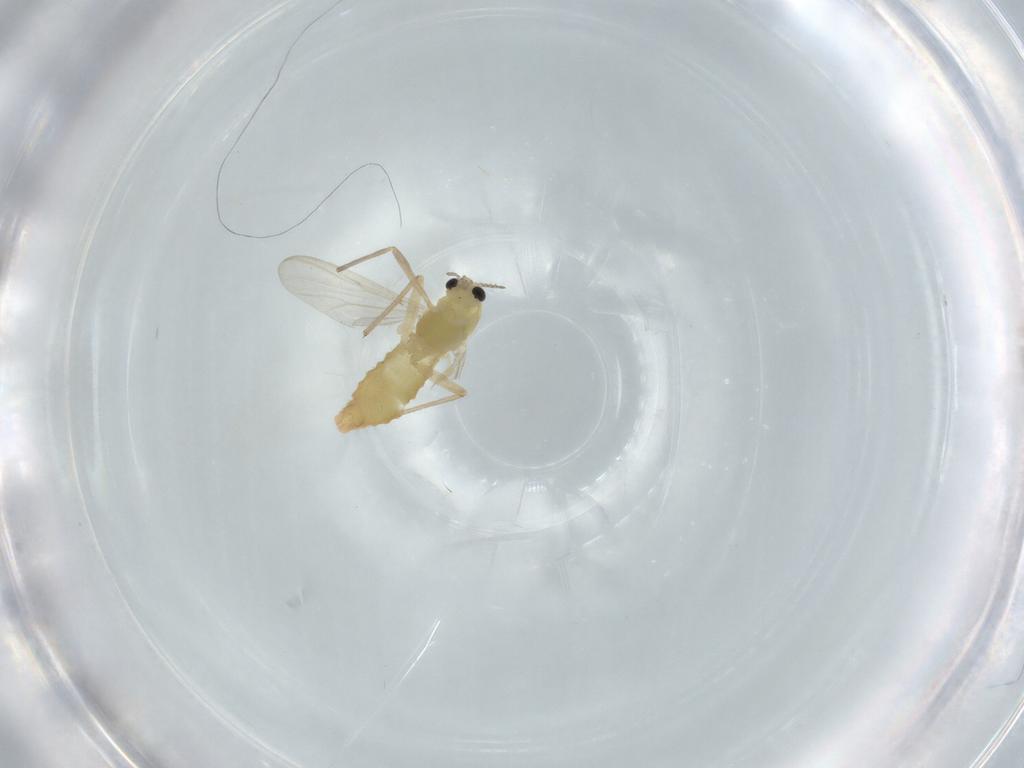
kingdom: Animalia
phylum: Arthropoda
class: Insecta
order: Diptera
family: Chironomidae
